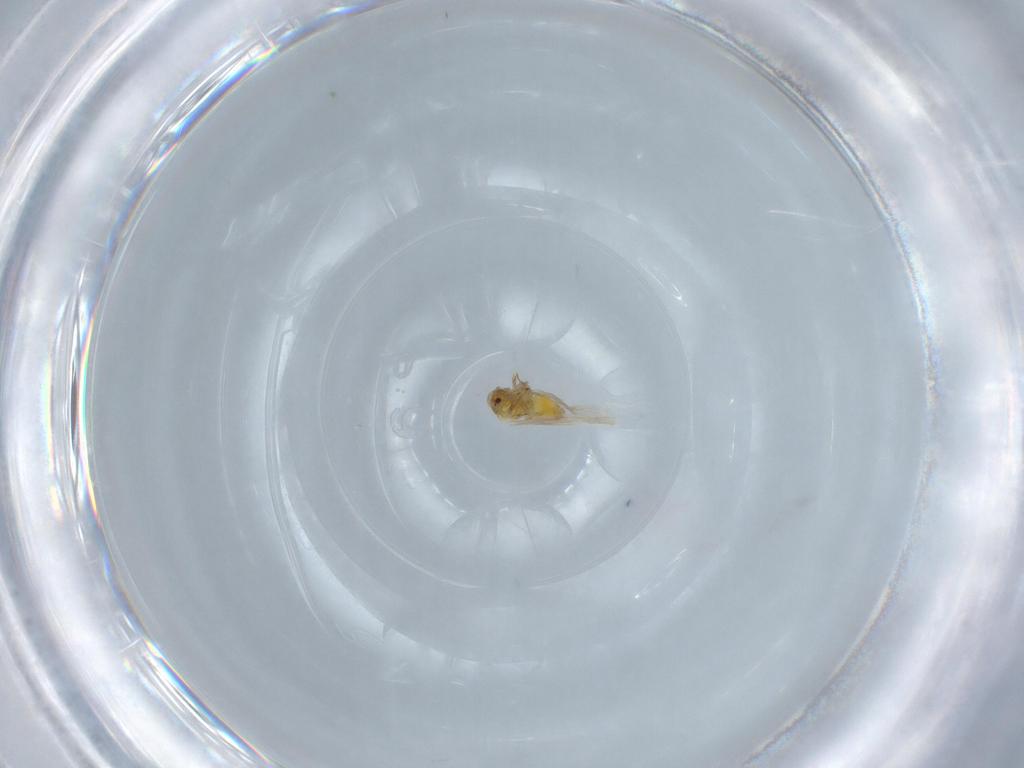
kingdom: Animalia
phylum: Arthropoda
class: Insecta
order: Hemiptera
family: Aleyrodidae
